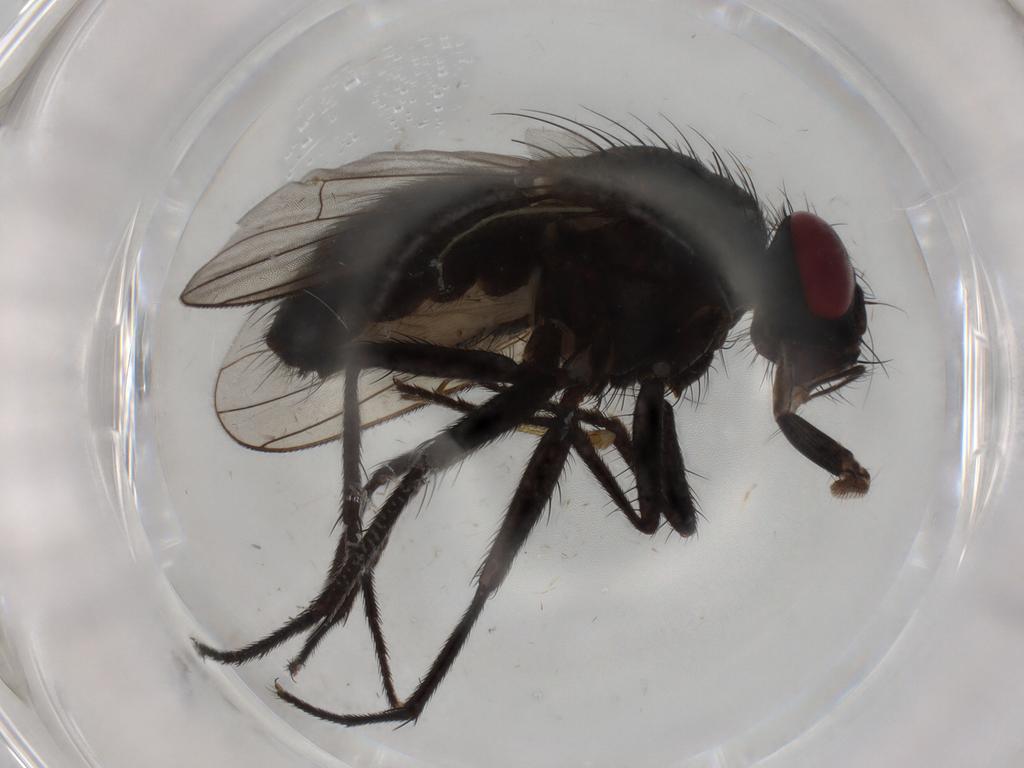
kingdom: Animalia
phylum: Arthropoda
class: Insecta
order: Diptera
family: Muscidae
